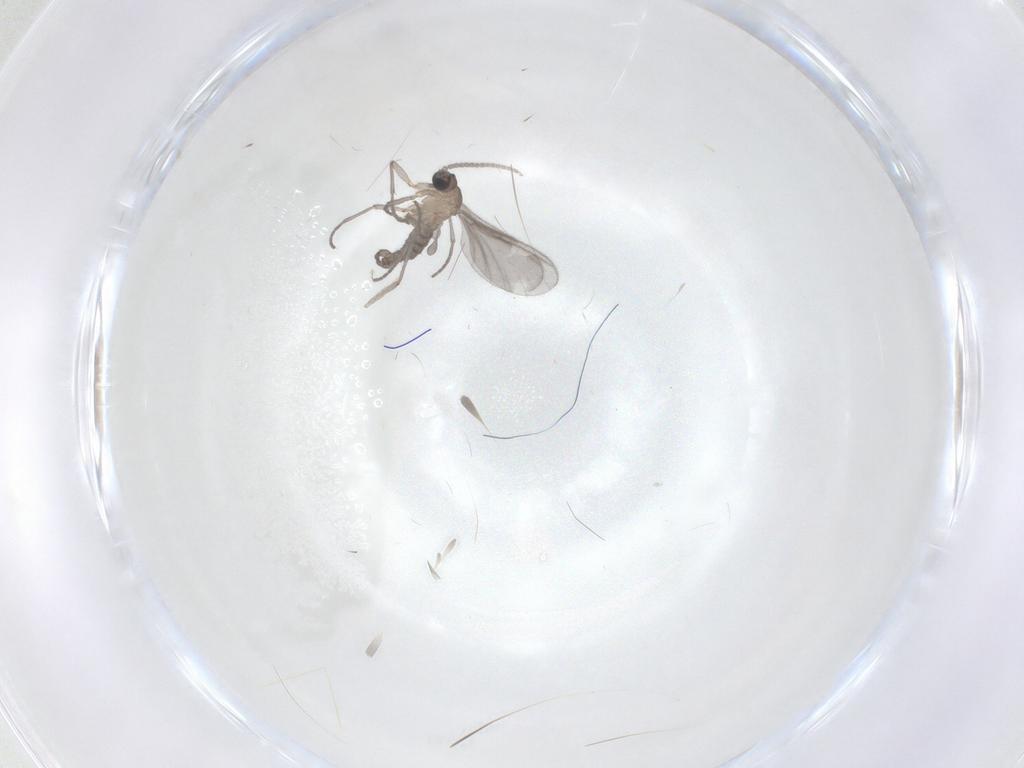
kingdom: Animalia
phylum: Arthropoda
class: Insecta
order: Diptera
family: Sciaridae
